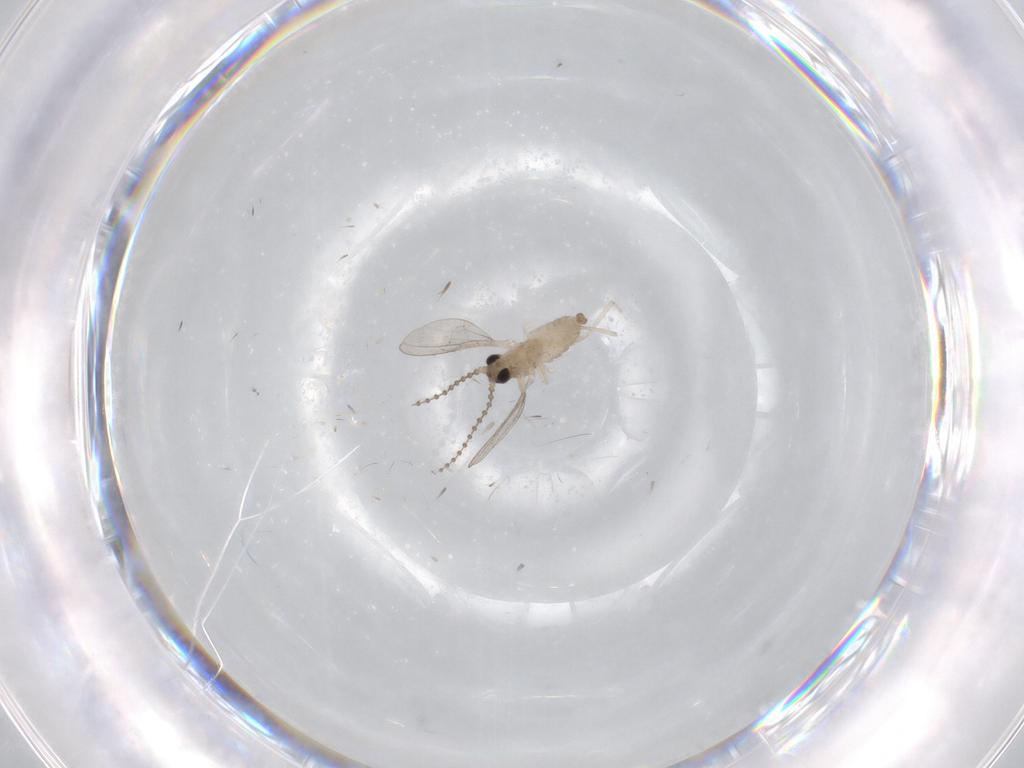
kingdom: Animalia
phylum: Arthropoda
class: Insecta
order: Diptera
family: Cecidomyiidae
